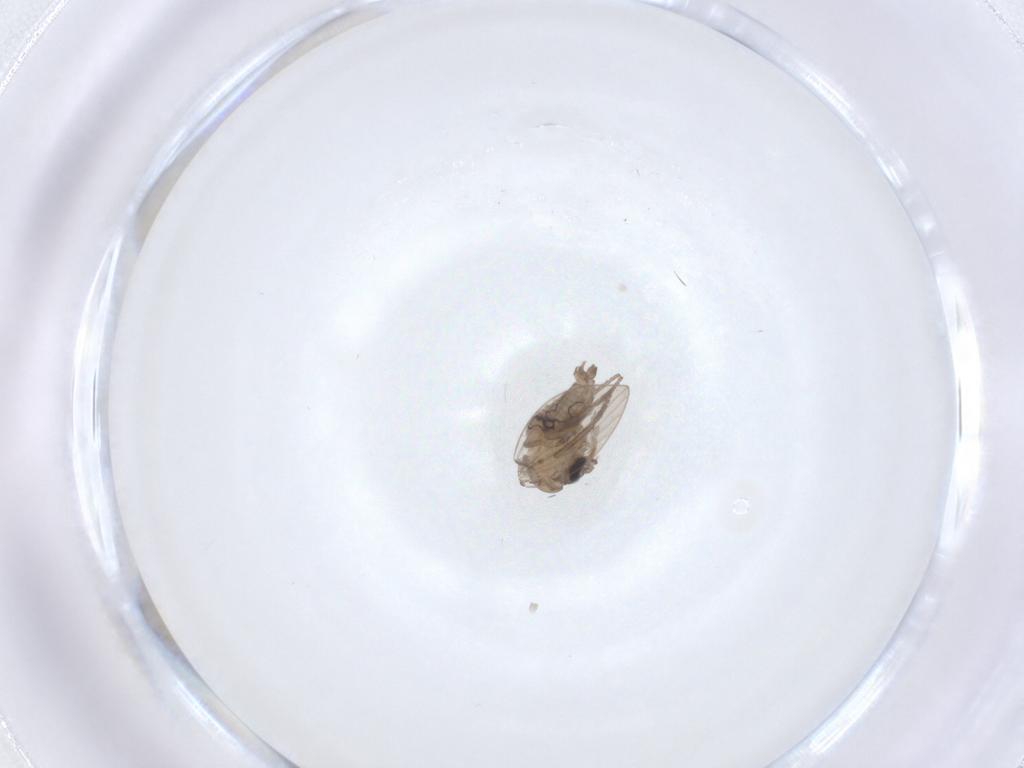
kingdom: Animalia
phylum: Arthropoda
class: Insecta
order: Diptera
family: Psychodidae
